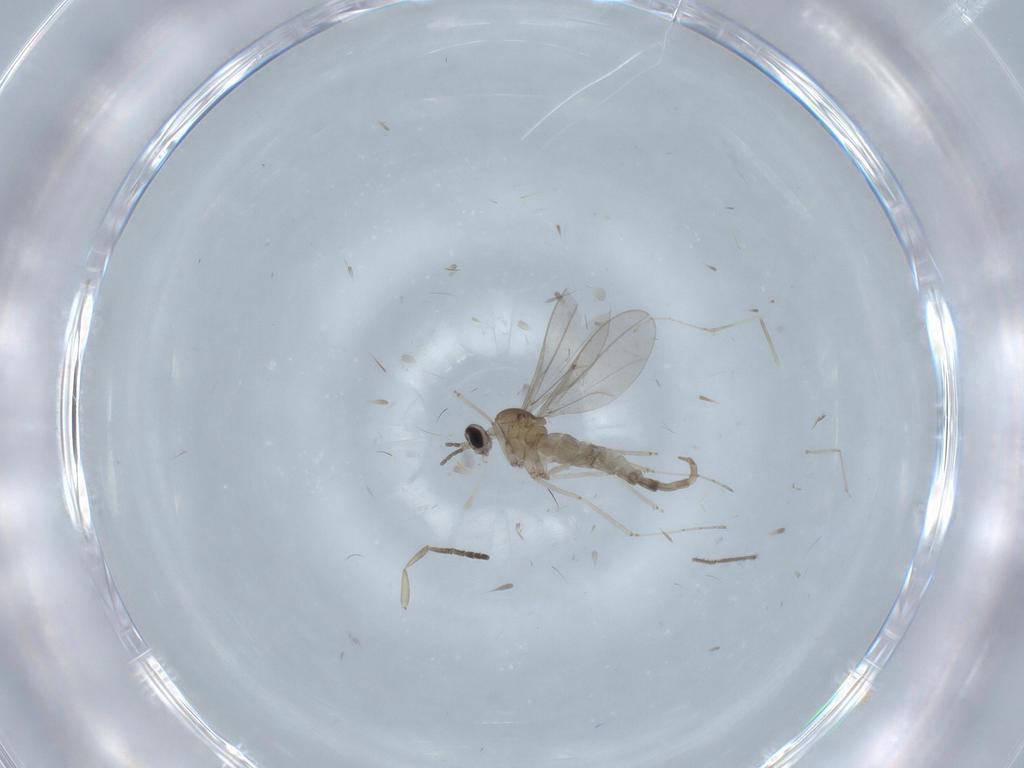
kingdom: Animalia
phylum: Arthropoda
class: Insecta
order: Diptera
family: Cecidomyiidae
